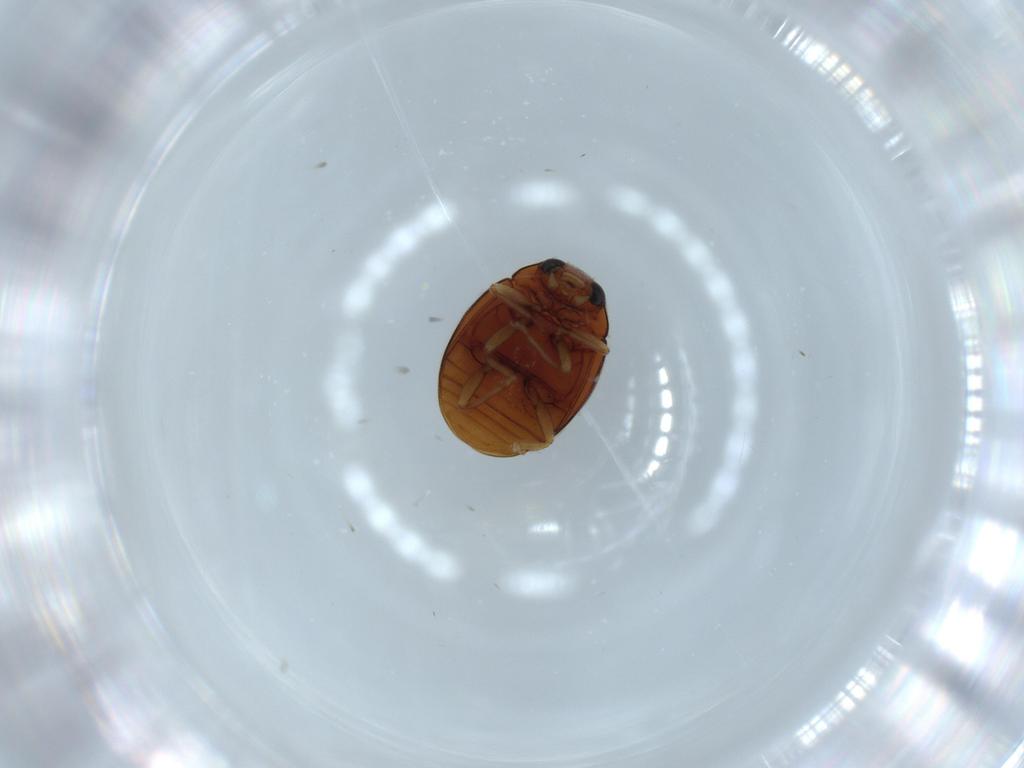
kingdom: Animalia
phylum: Arthropoda
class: Insecta
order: Coleoptera
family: Coccinellidae
